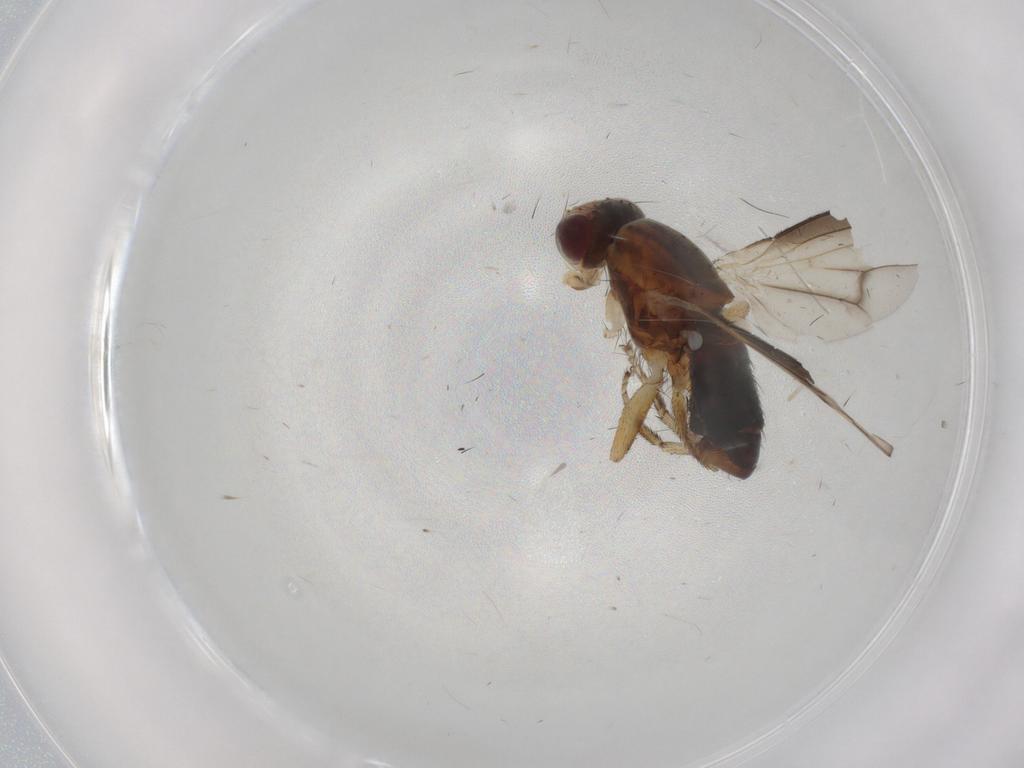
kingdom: Animalia
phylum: Arthropoda
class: Insecta
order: Diptera
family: Heleomyzidae
